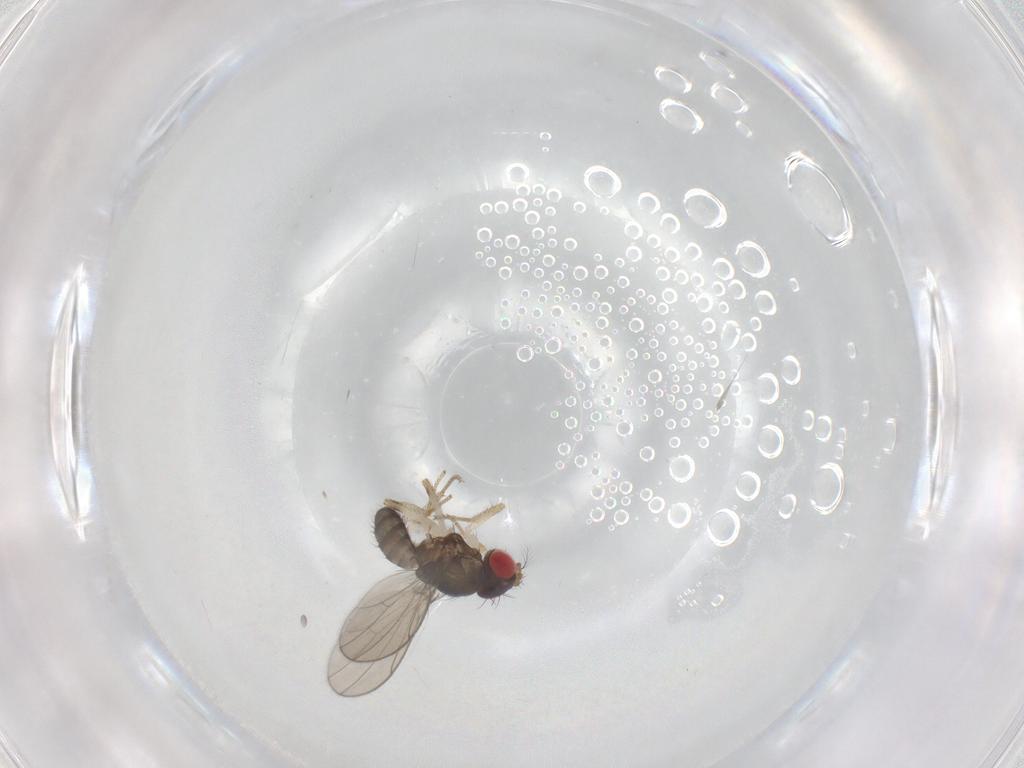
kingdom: Animalia
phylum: Arthropoda
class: Insecta
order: Diptera
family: Drosophilidae
